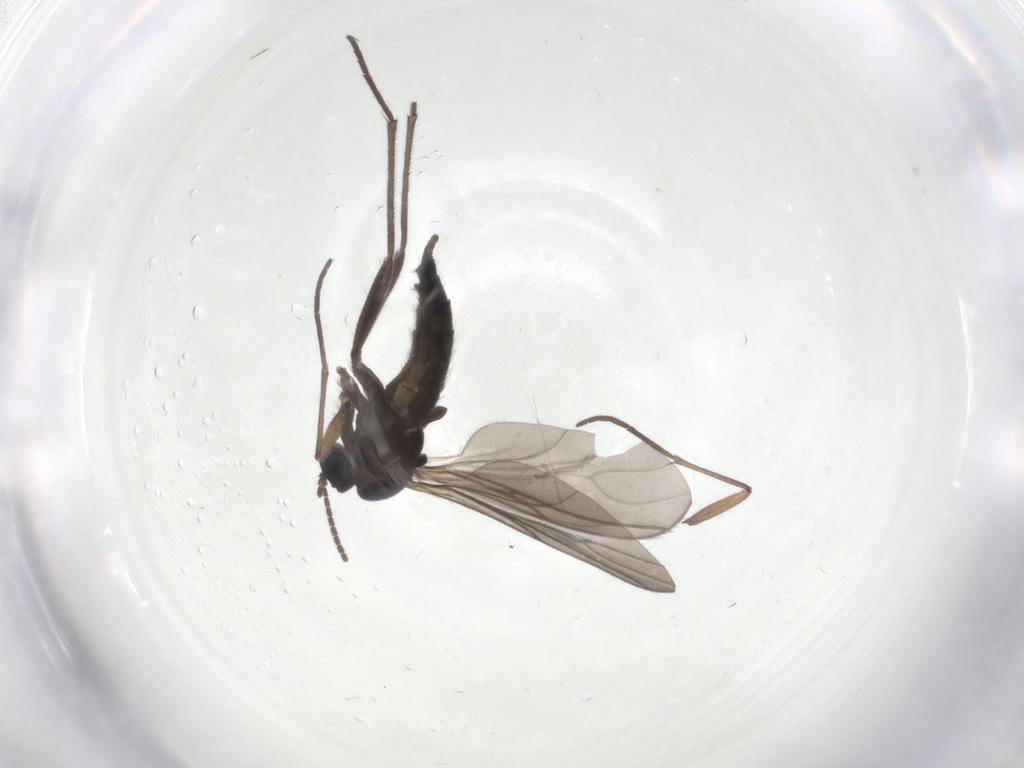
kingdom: Animalia
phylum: Arthropoda
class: Insecta
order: Diptera
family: Sciaridae
